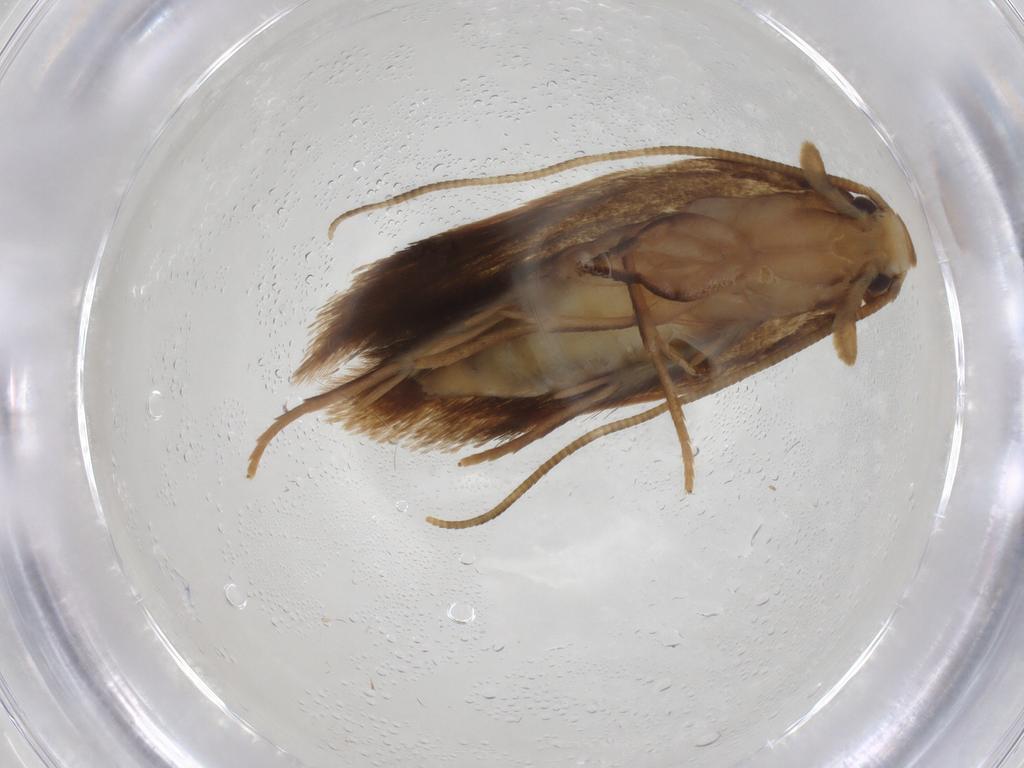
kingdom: Animalia
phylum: Arthropoda
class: Insecta
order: Lepidoptera
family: Tineidae
